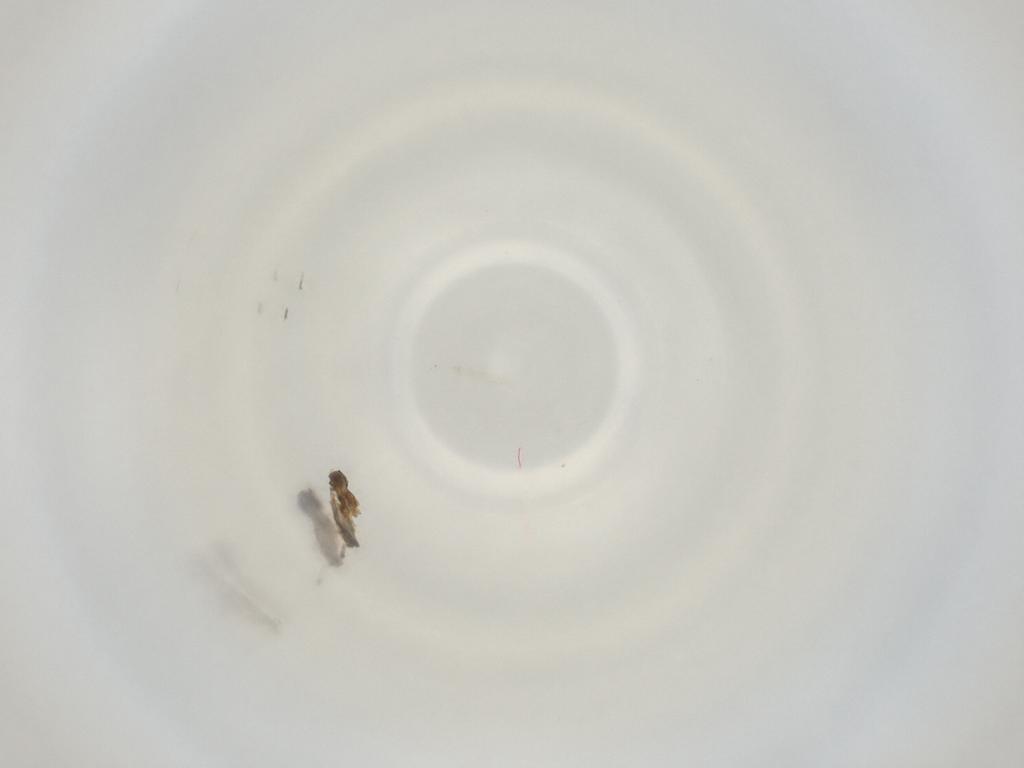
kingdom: Animalia
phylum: Arthropoda
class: Insecta
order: Diptera
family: Cecidomyiidae
